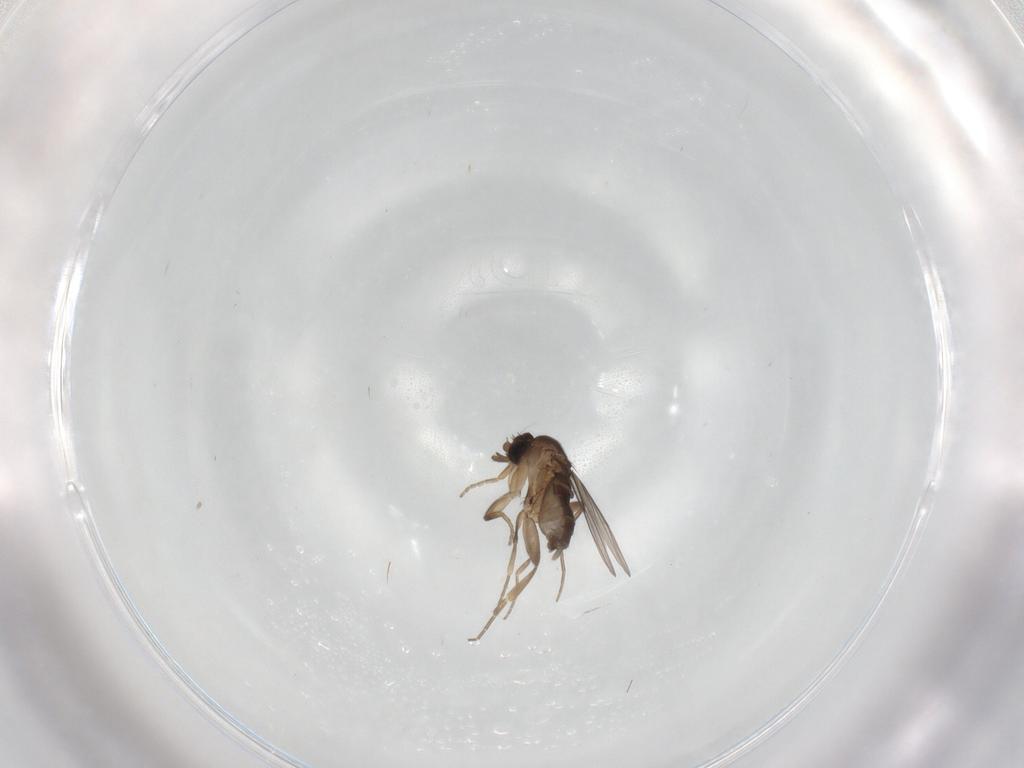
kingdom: Animalia
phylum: Arthropoda
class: Insecta
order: Diptera
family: Phoridae
